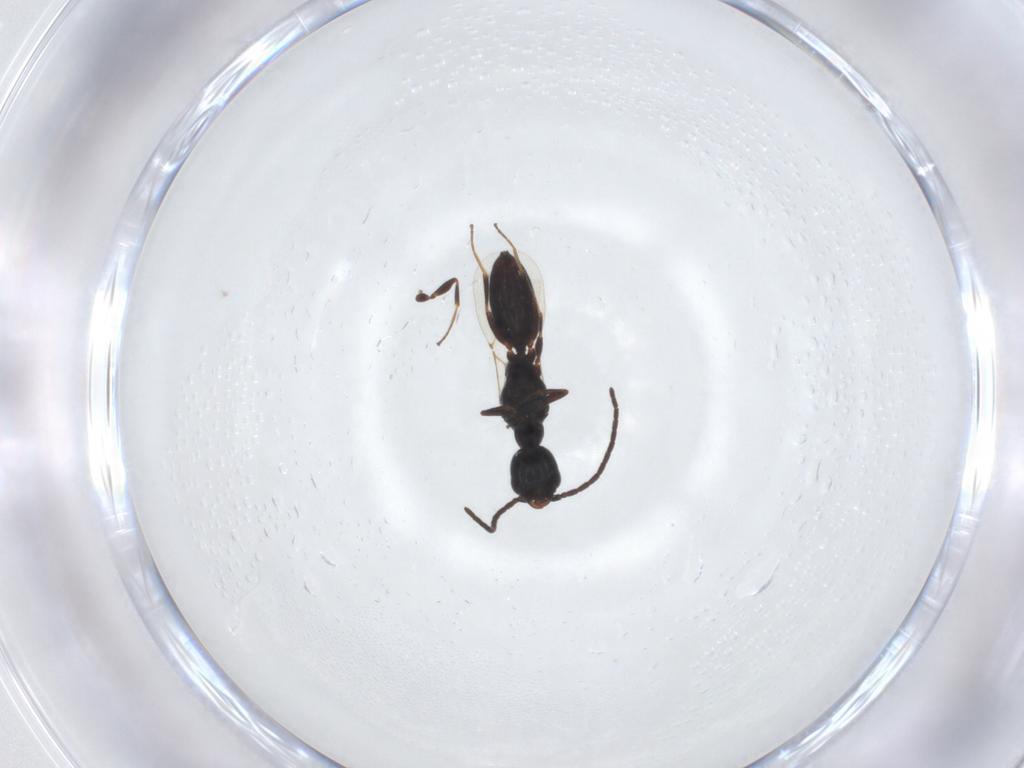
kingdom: Animalia
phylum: Arthropoda
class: Insecta
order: Hymenoptera
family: Bethylidae
